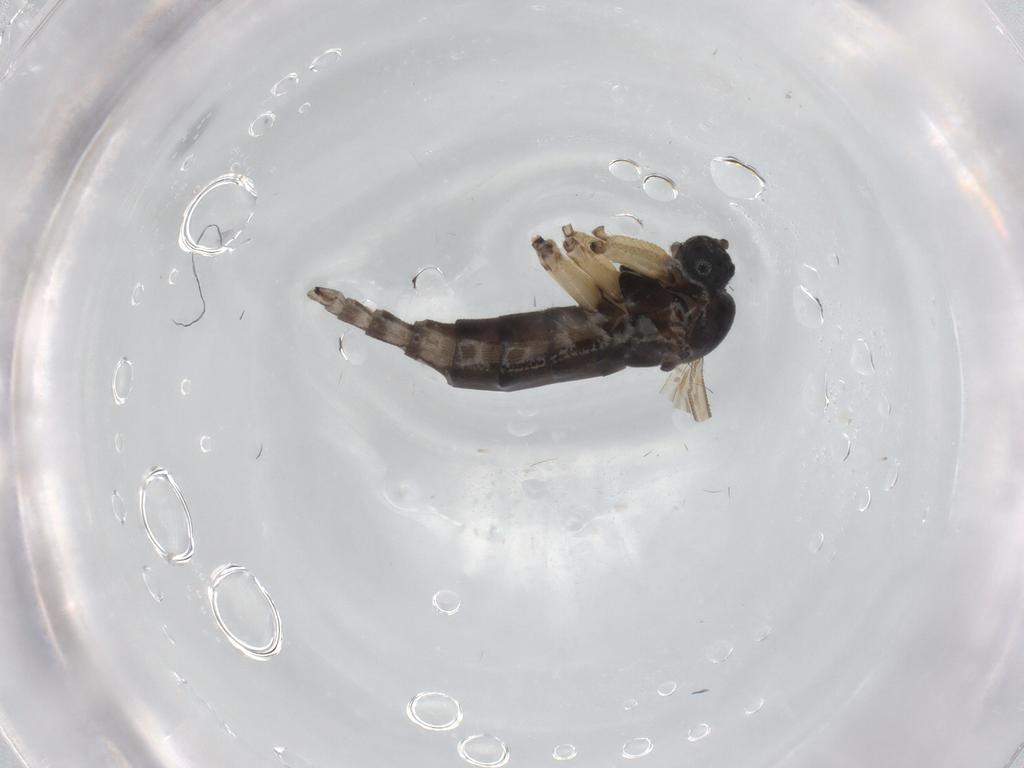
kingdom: Animalia
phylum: Arthropoda
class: Insecta
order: Diptera
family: Sciaridae
